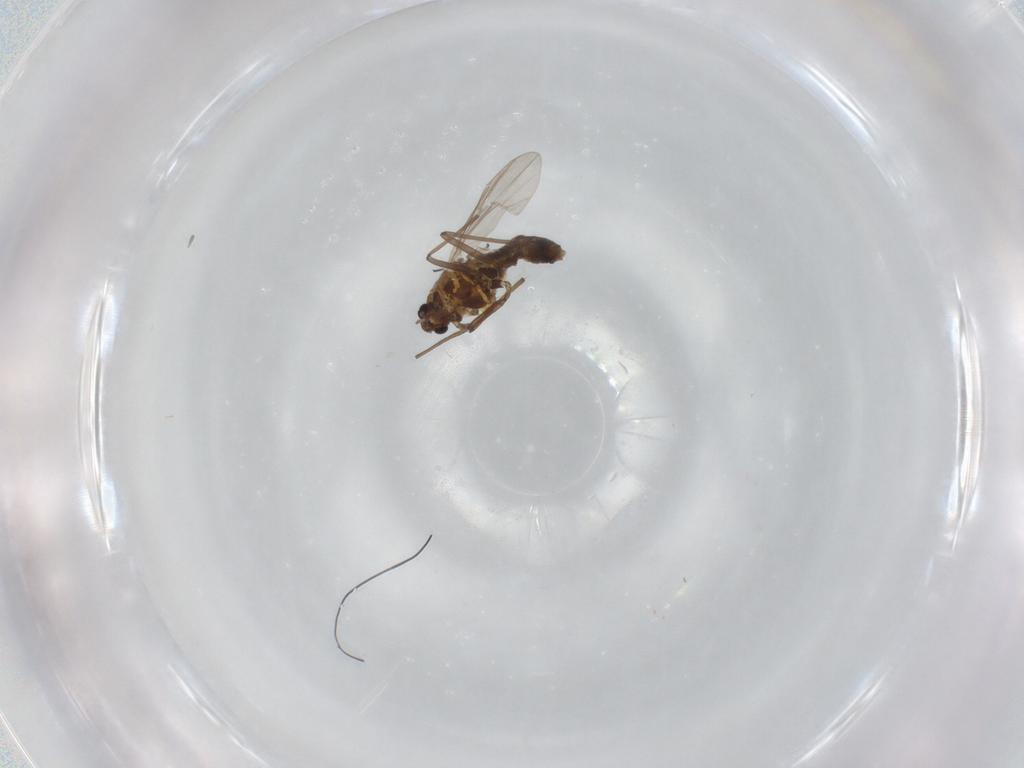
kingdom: Animalia
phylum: Arthropoda
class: Insecta
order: Diptera
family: Chironomidae
